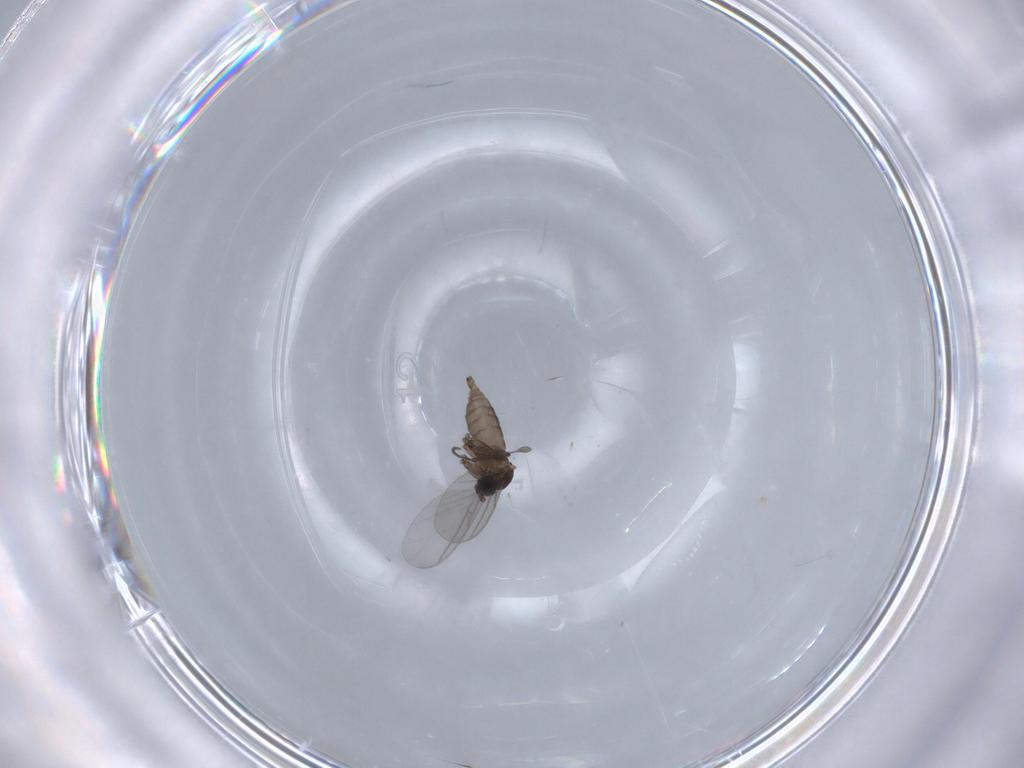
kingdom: Animalia
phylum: Arthropoda
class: Insecta
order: Diptera
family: Sciaridae
